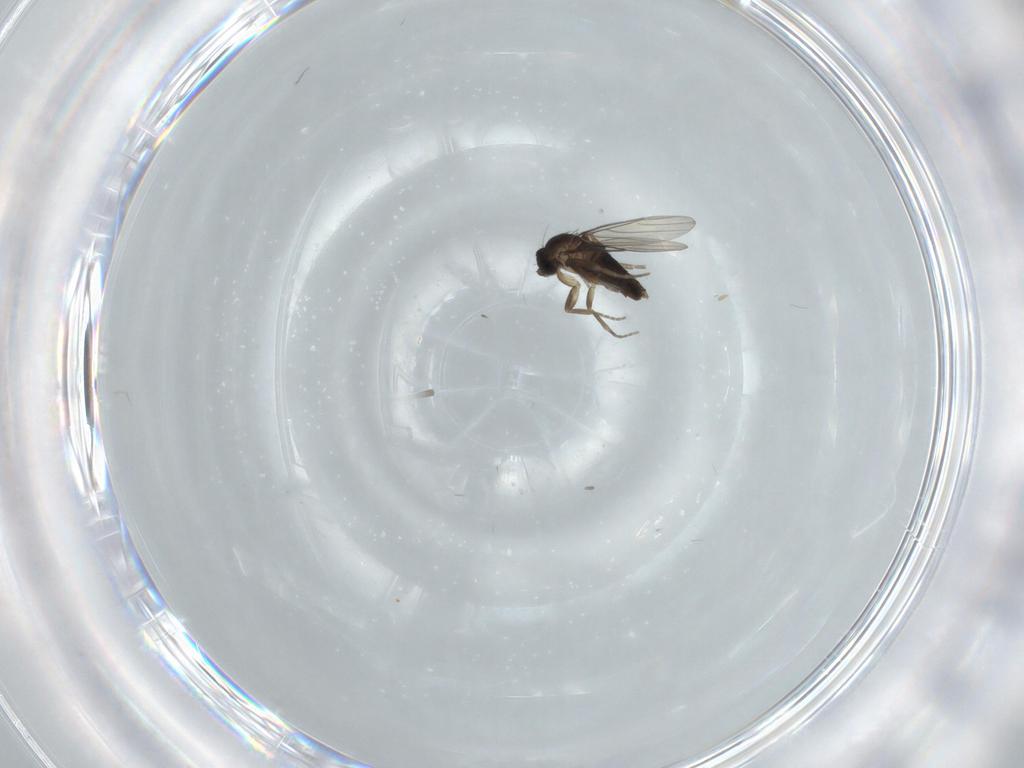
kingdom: Animalia
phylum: Arthropoda
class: Insecta
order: Diptera
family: Phoridae
